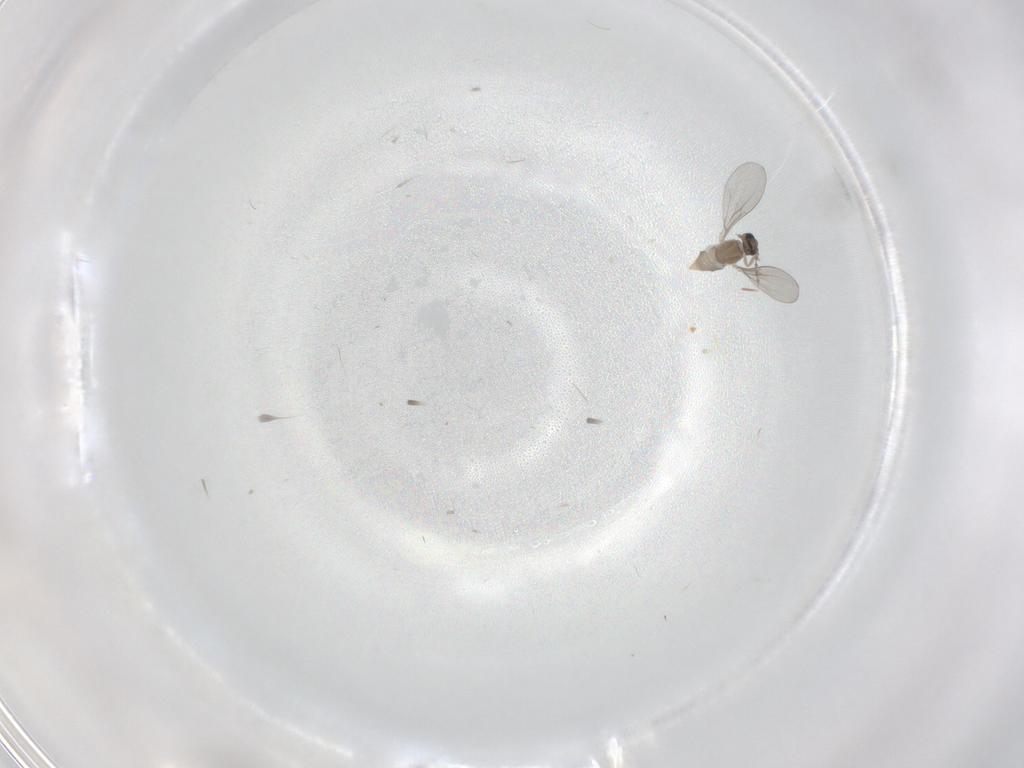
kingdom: Animalia
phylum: Arthropoda
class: Insecta
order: Diptera
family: Cecidomyiidae
